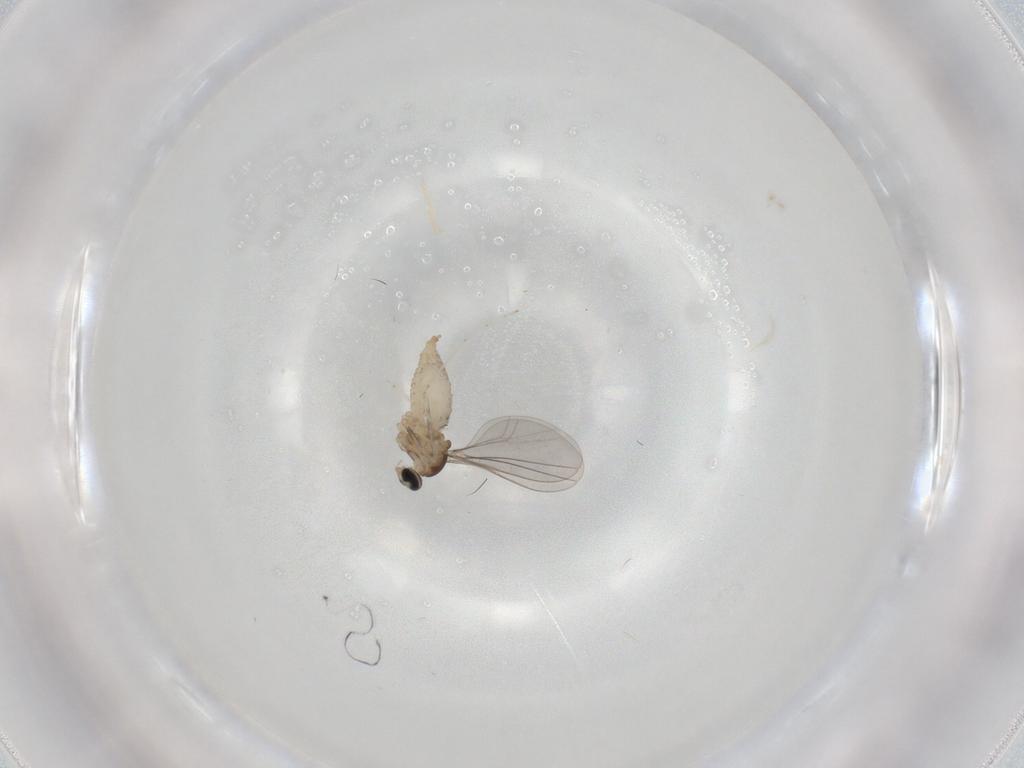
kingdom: Animalia
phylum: Arthropoda
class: Insecta
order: Diptera
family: Cecidomyiidae
